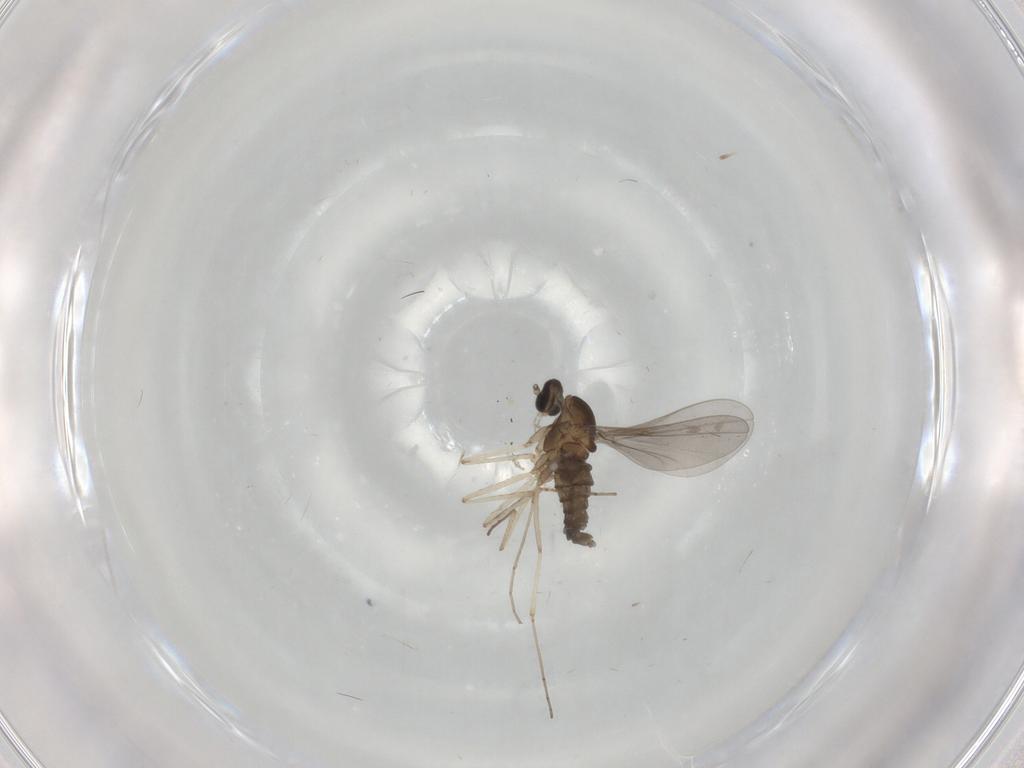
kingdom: Animalia
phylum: Arthropoda
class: Insecta
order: Diptera
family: Cecidomyiidae
